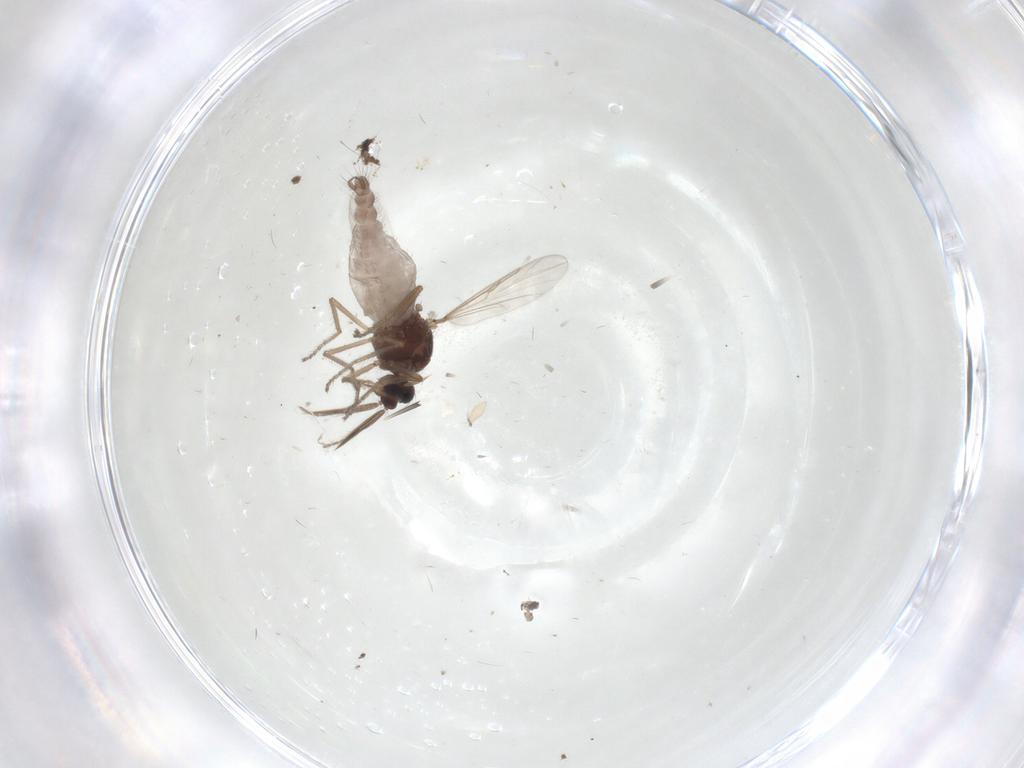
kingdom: Animalia
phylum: Arthropoda
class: Insecta
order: Diptera
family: Ceratopogonidae
